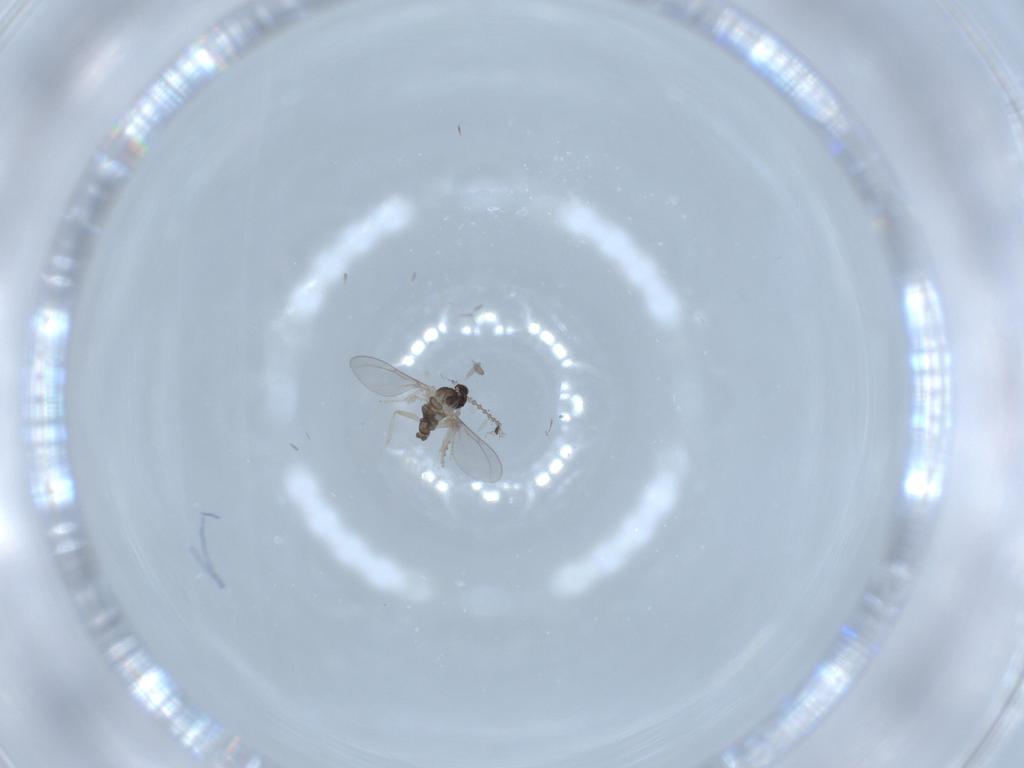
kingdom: Animalia
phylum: Arthropoda
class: Insecta
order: Diptera
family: Cecidomyiidae
